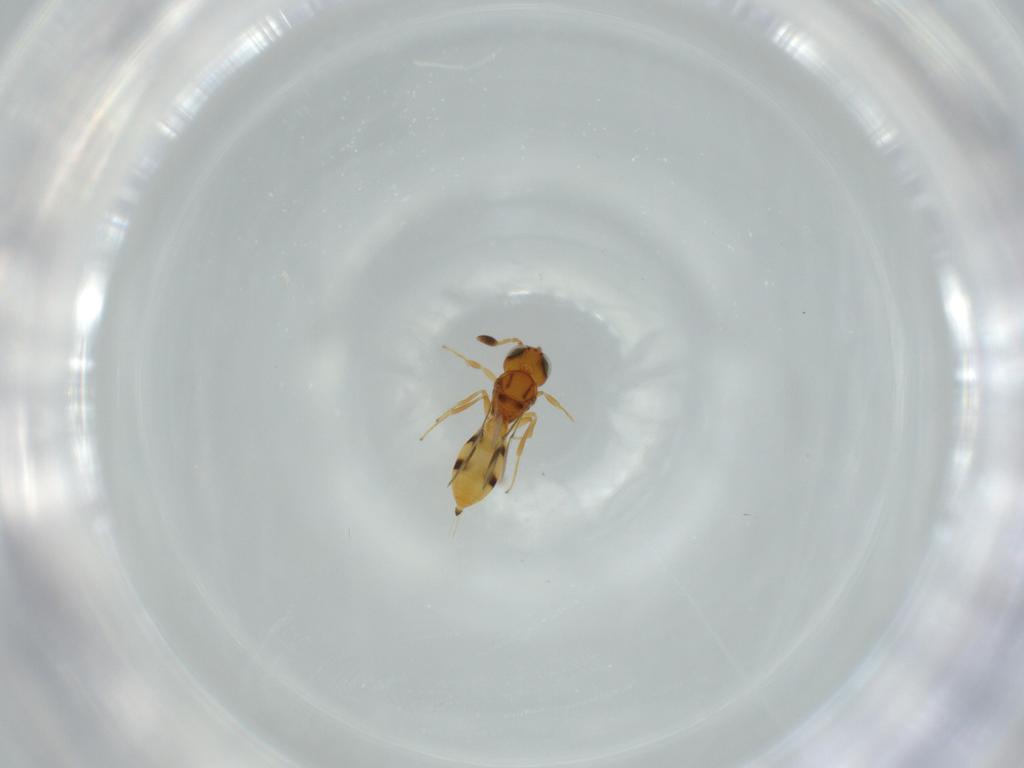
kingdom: Animalia
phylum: Arthropoda
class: Insecta
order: Hymenoptera
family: Scelionidae
